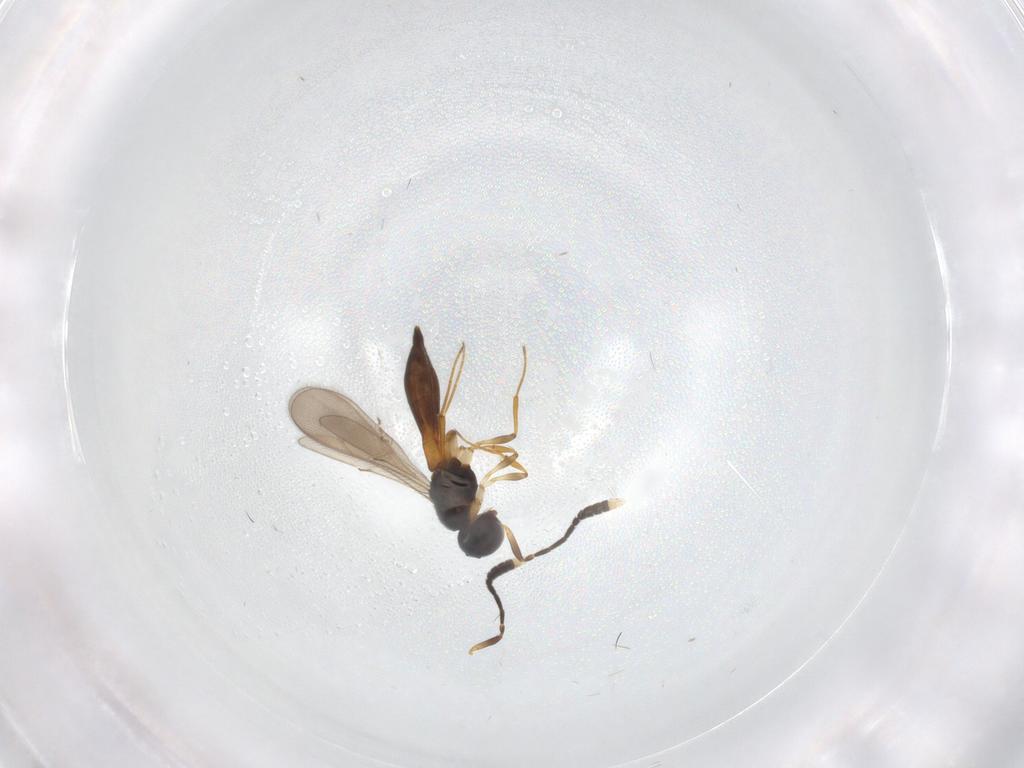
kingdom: Animalia
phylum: Arthropoda
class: Insecta
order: Hymenoptera
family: Scelionidae
